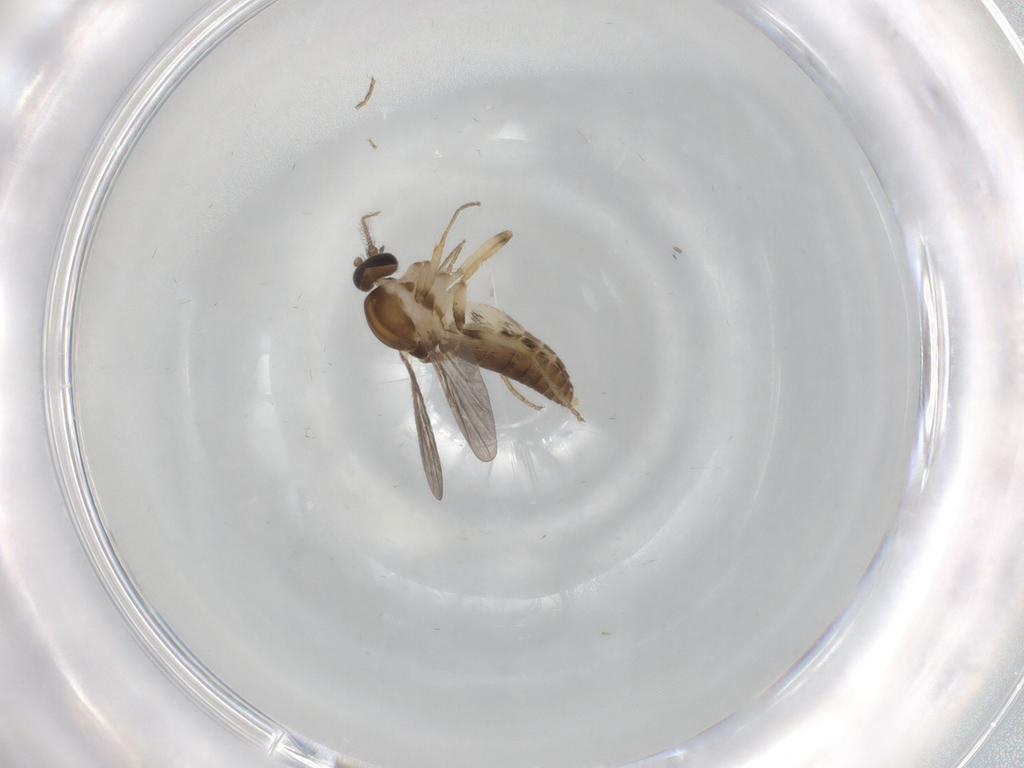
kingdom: Animalia
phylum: Arthropoda
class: Insecta
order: Diptera
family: Ceratopogonidae
